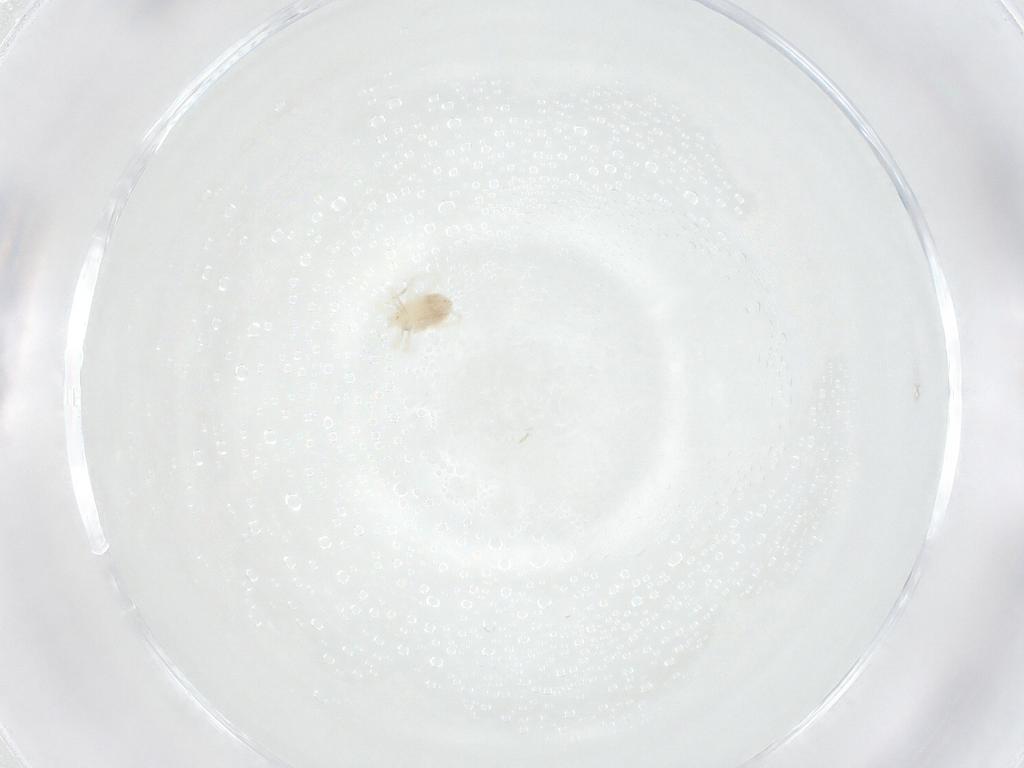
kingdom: Animalia
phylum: Arthropoda
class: Arachnida
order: Trombidiformes
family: Anystidae
